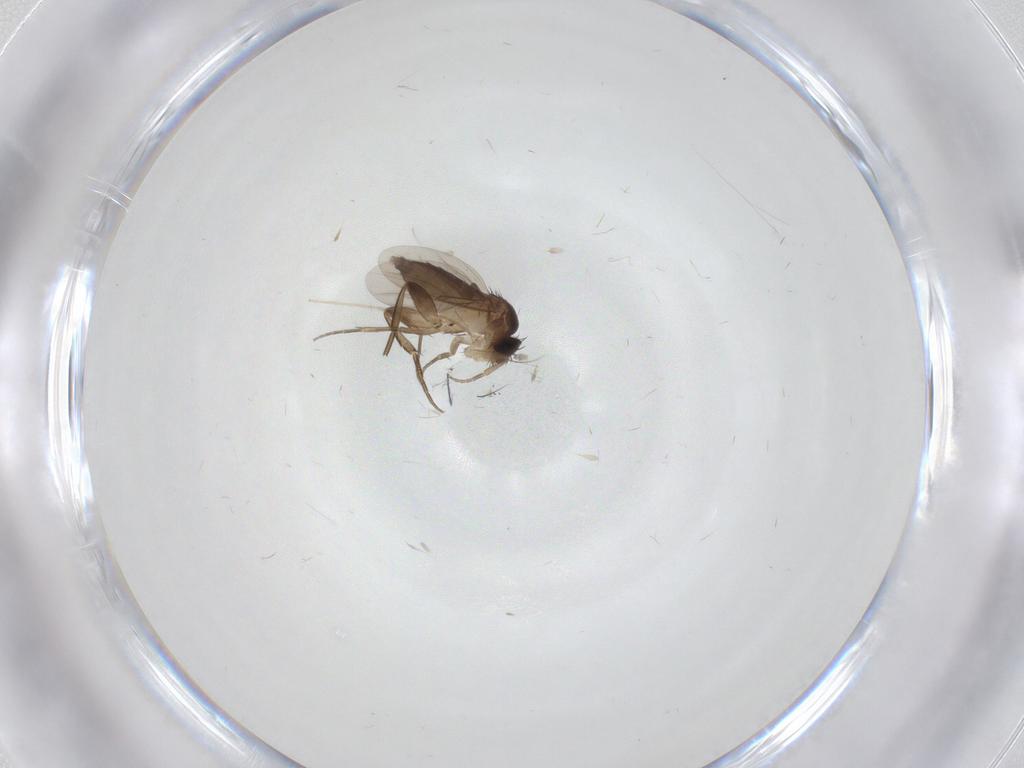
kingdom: Animalia
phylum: Arthropoda
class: Insecta
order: Diptera
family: Phoridae
